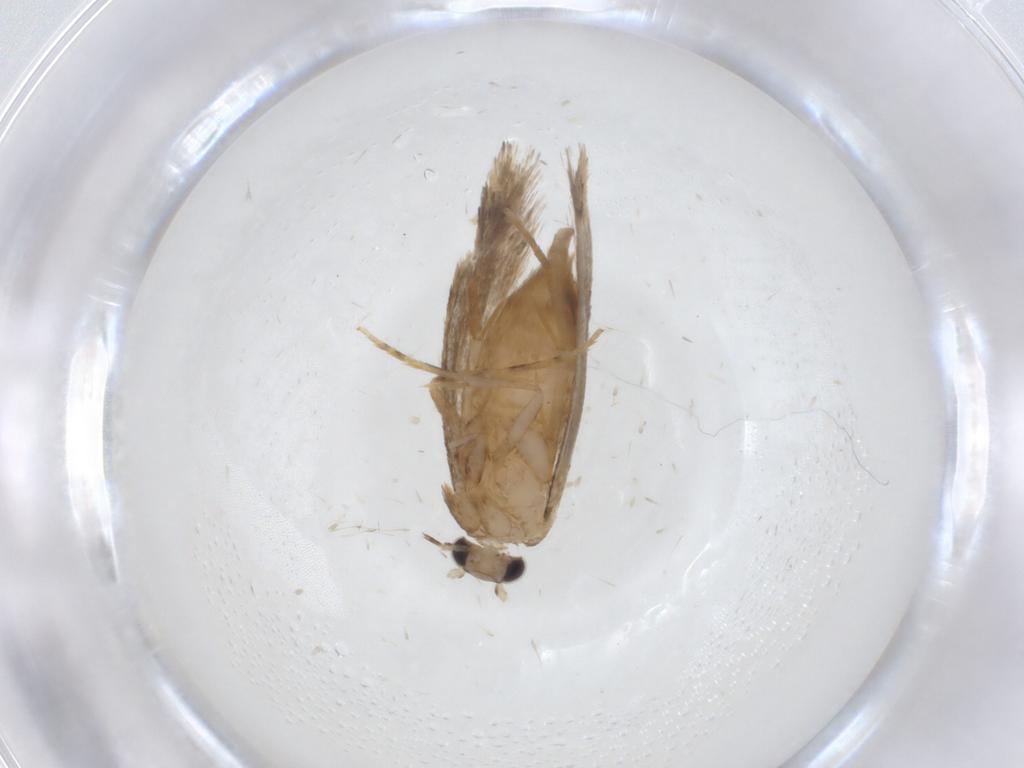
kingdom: Animalia
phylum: Arthropoda
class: Insecta
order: Lepidoptera
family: Tineidae
